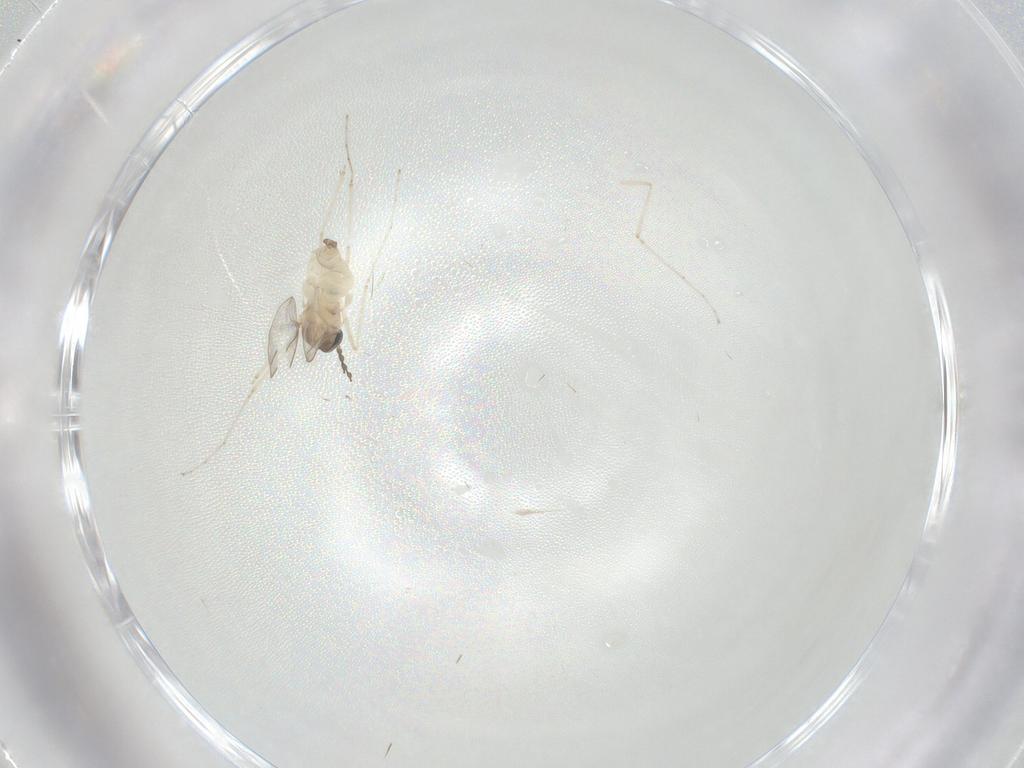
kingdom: Animalia
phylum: Arthropoda
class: Insecta
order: Diptera
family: Cecidomyiidae
